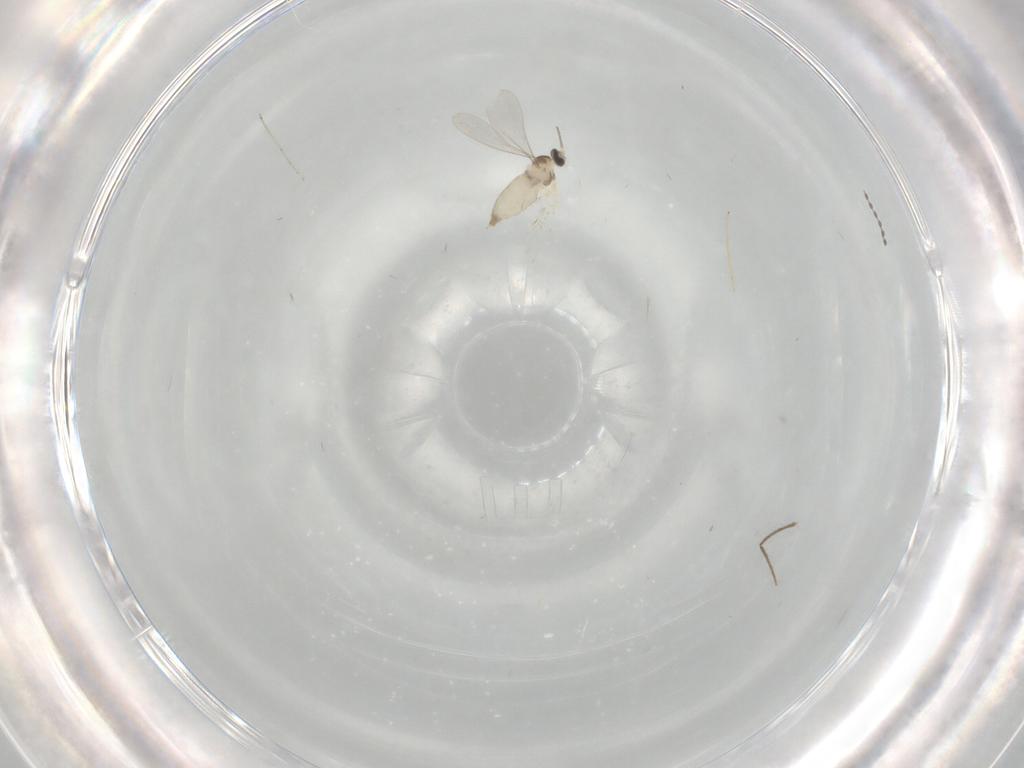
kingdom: Animalia
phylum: Arthropoda
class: Insecta
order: Diptera
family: Cecidomyiidae
